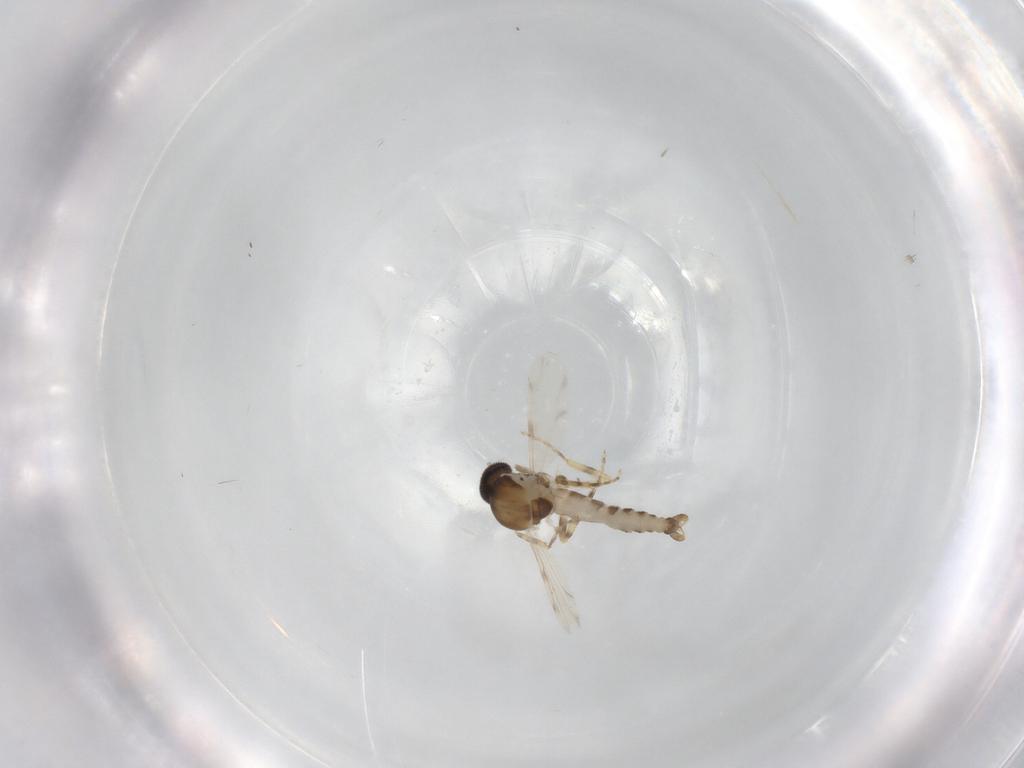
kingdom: Animalia
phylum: Arthropoda
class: Insecta
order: Diptera
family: Ceratopogonidae
